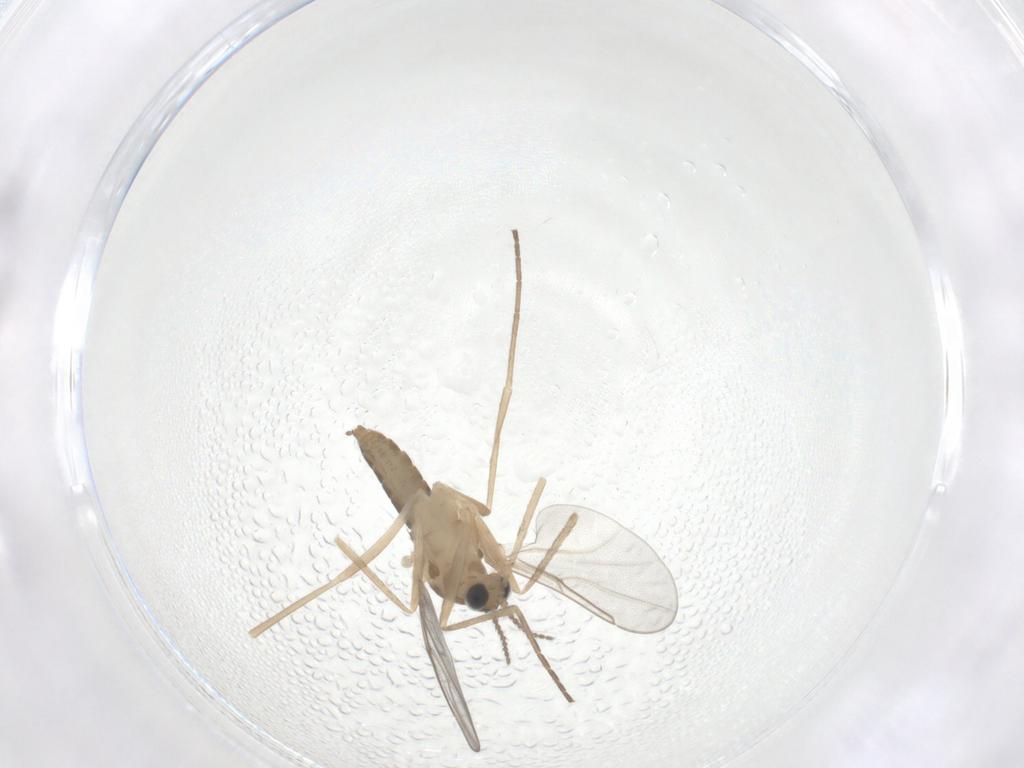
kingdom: Animalia
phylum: Arthropoda
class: Insecta
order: Diptera
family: Cecidomyiidae
